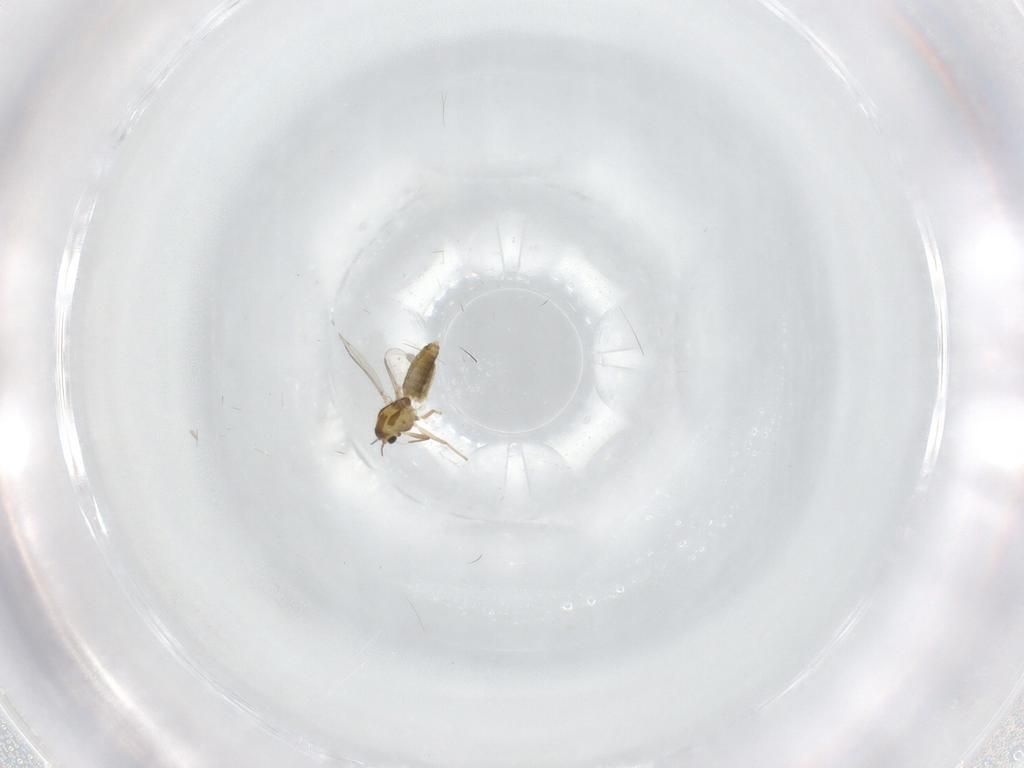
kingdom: Animalia
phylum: Arthropoda
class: Insecta
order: Diptera
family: Chironomidae
